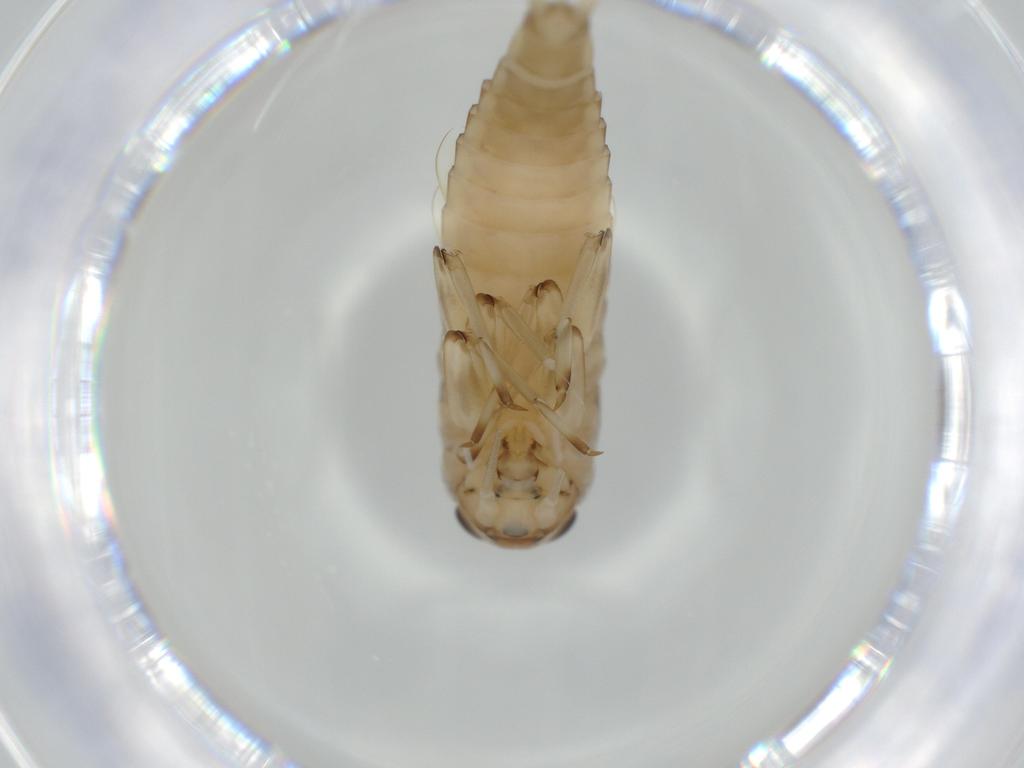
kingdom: Animalia
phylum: Arthropoda
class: Insecta
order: Ephemeroptera
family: Baetidae
